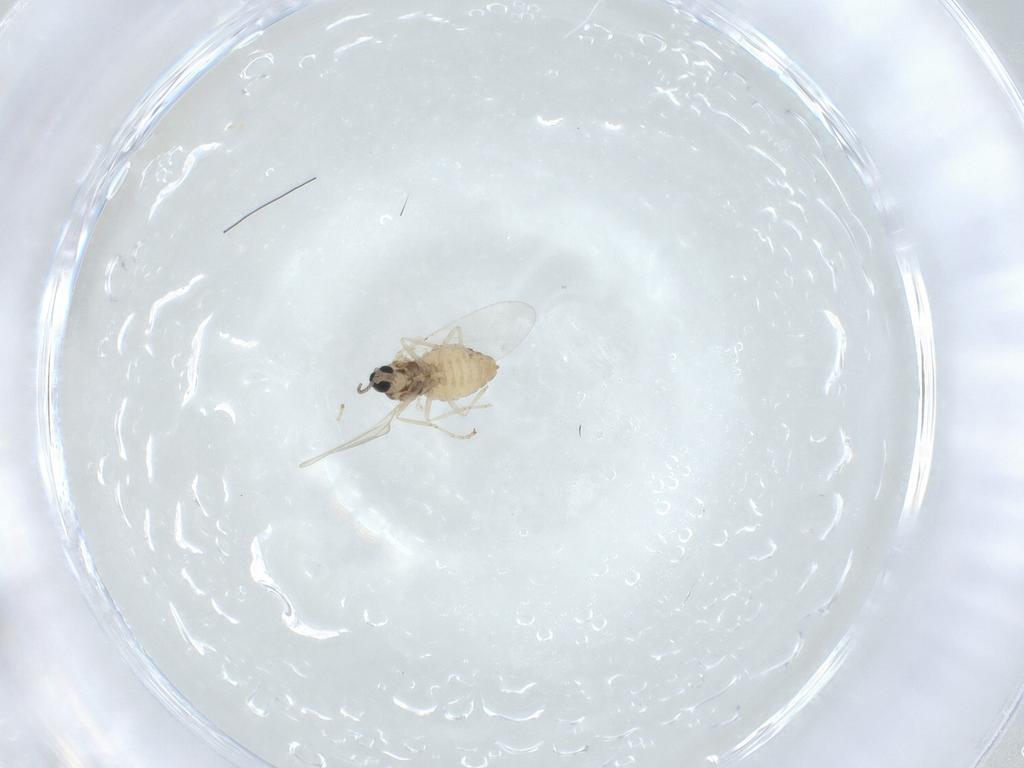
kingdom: Animalia
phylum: Arthropoda
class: Insecta
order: Diptera
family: Cecidomyiidae
